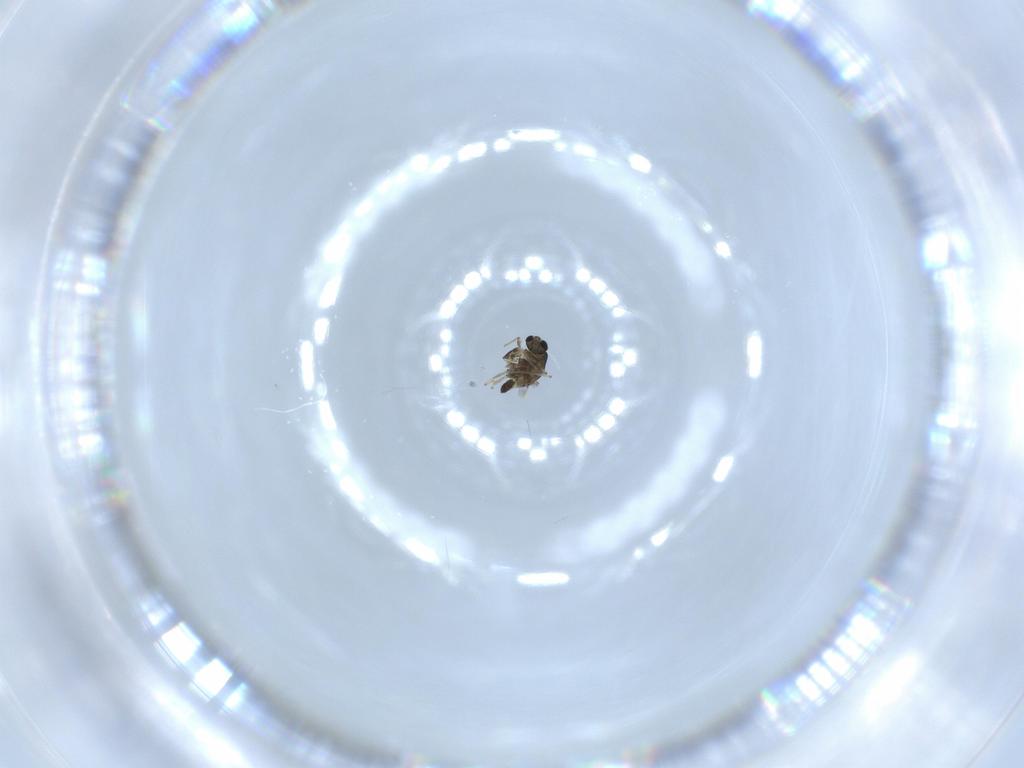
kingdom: Animalia
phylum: Arthropoda
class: Insecta
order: Diptera
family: Chironomidae
